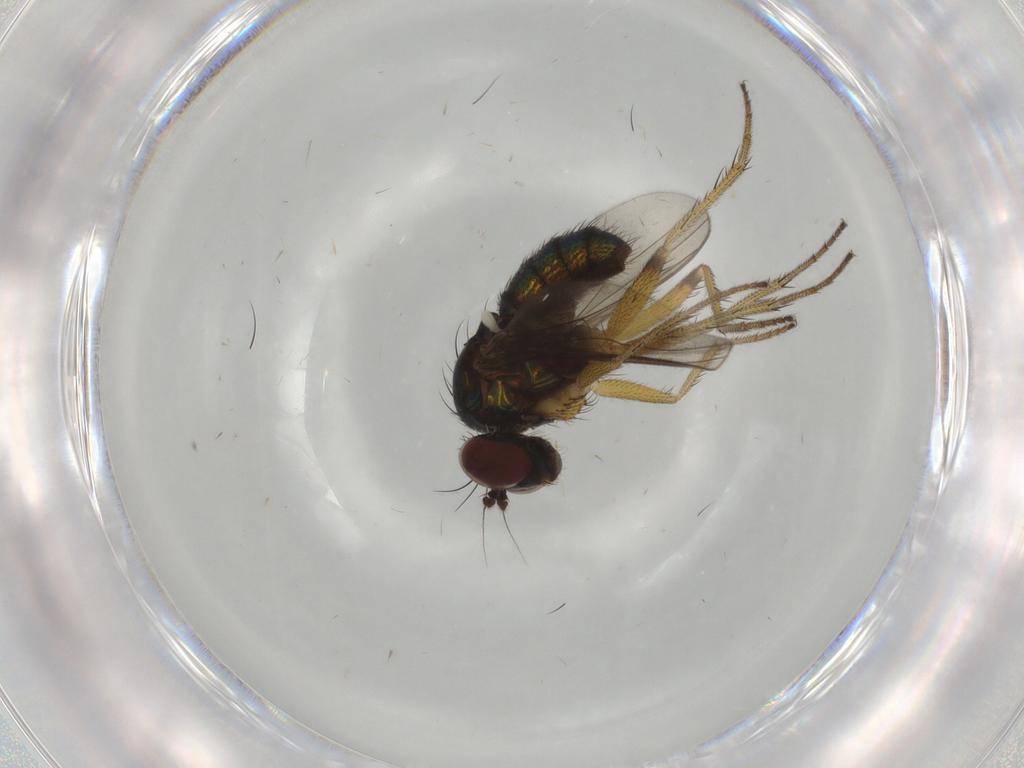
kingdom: Animalia
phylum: Arthropoda
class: Insecta
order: Diptera
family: Dolichopodidae
